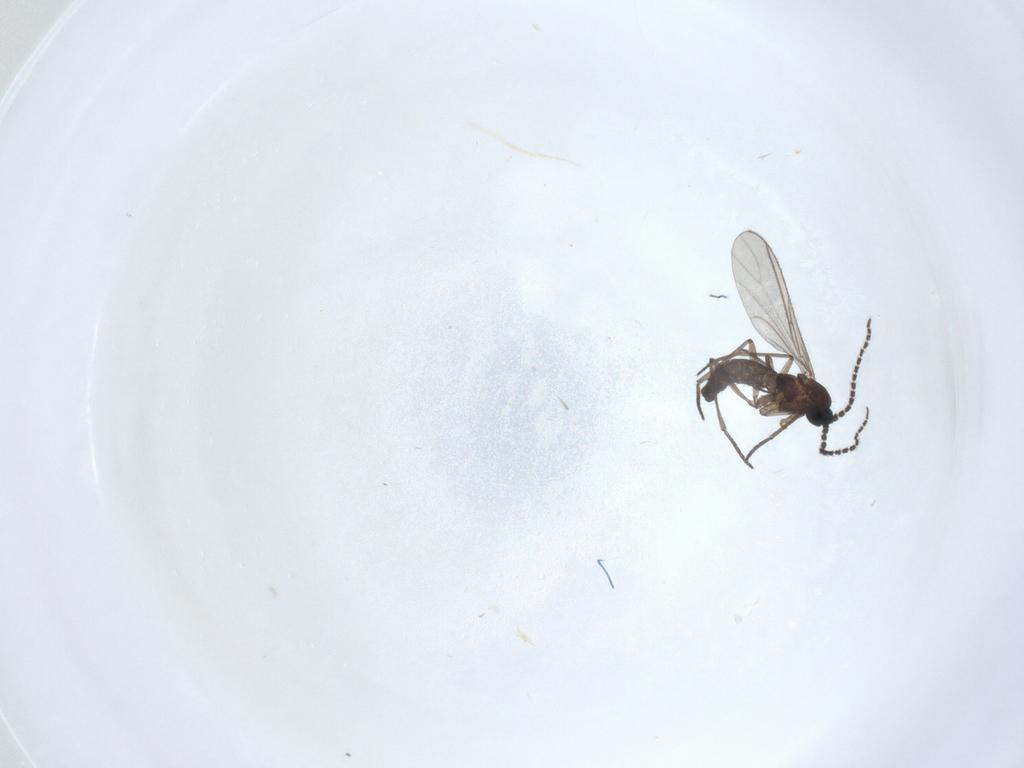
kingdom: Animalia
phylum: Arthropoda
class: Insecta
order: Diptera
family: Sciaridae
